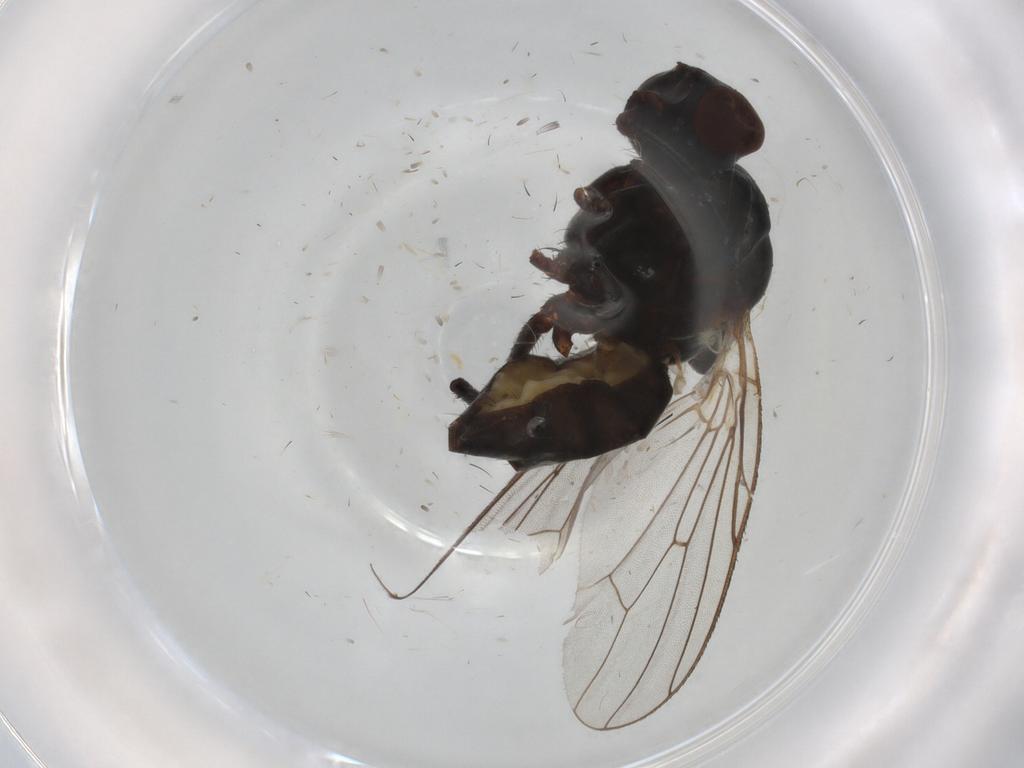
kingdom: Animalia
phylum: Arthropoda
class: Insecta
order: Diptera
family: Anthomyiidae
